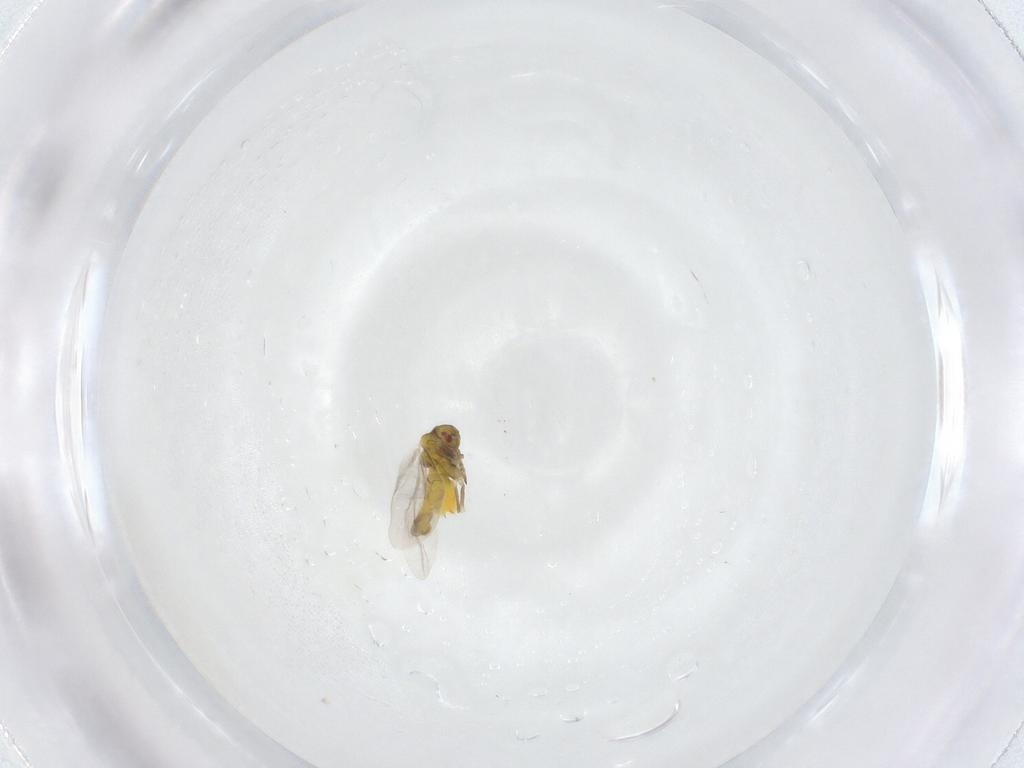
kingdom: Animalia
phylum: Arthropoda
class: Insecta
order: Hemiptera
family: Aleyrodidae
